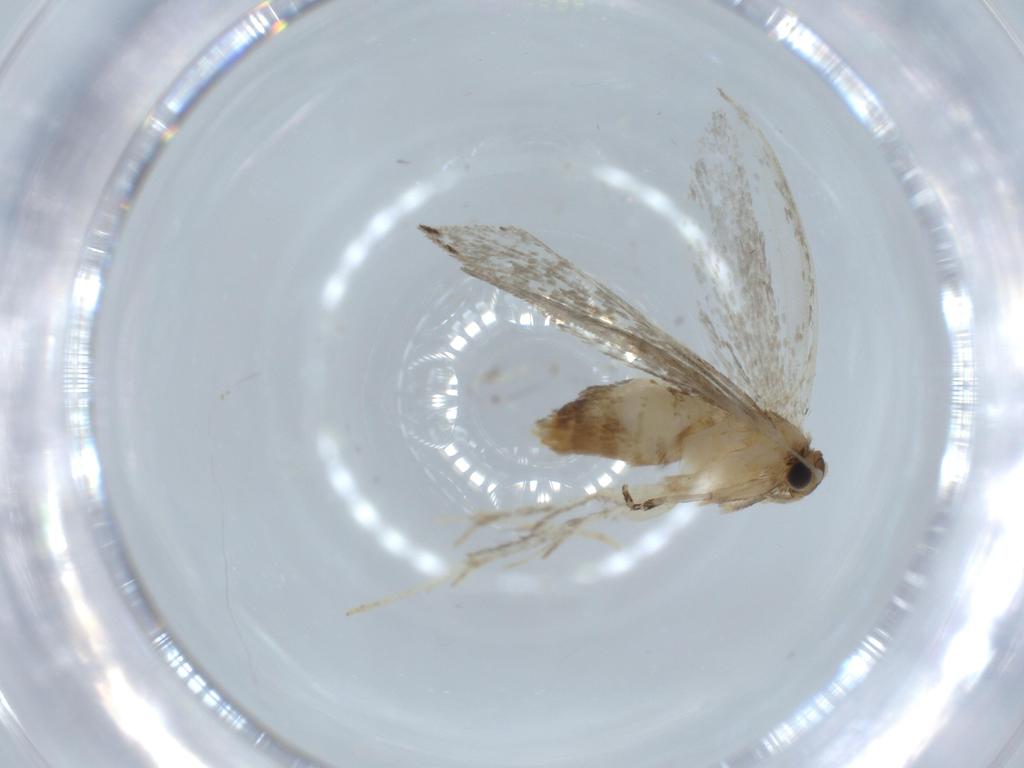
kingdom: Animalia
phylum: Arthropoda
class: Insecta
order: Lepidoptera
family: Tineidae
